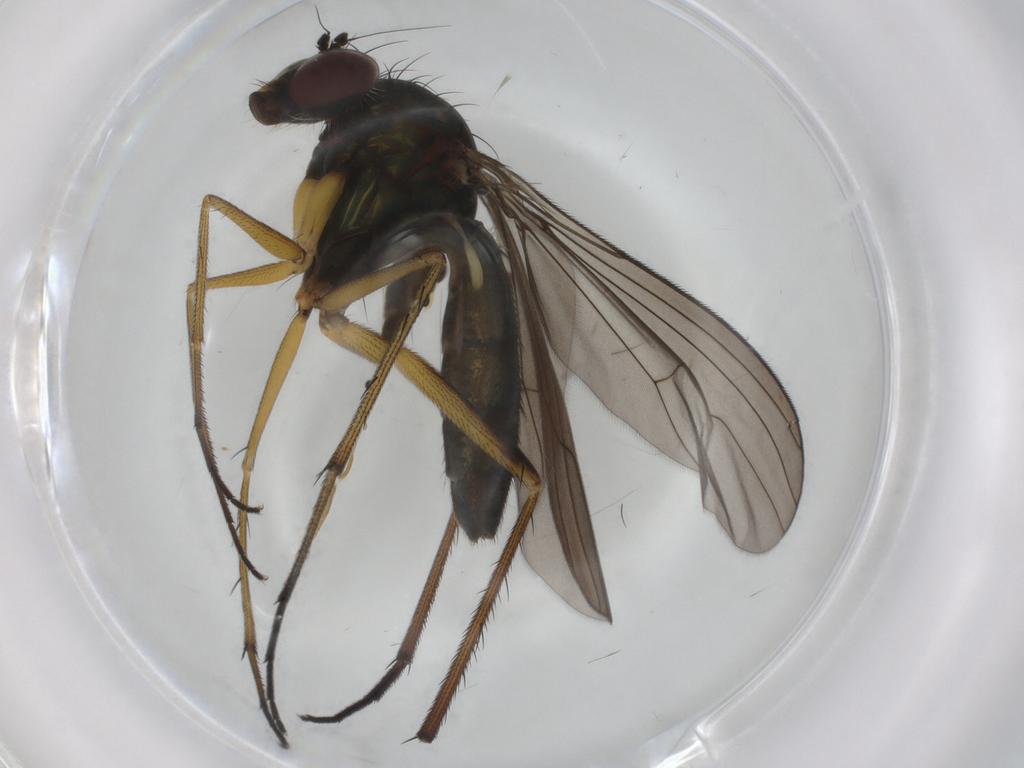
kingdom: Animalia
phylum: Arthropoda
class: Insecta
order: Diptera
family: Dolichopodidae
